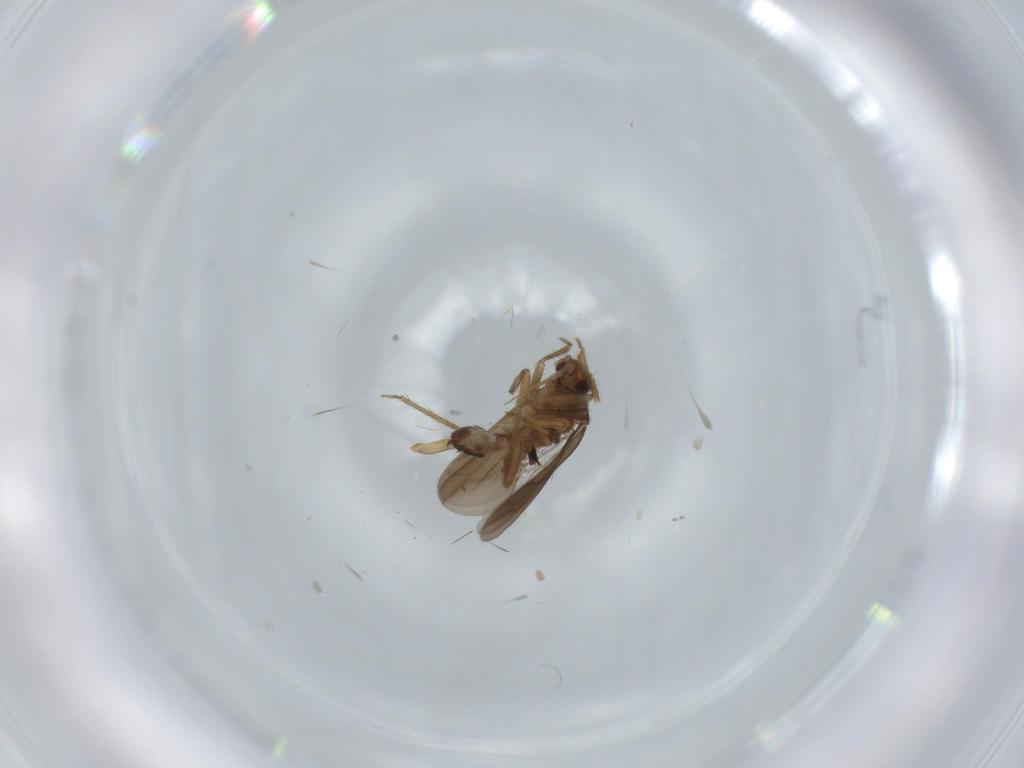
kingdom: Animalia
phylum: Arthropoda
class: Insecta
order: Hemiptera
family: Ceratocombidae
